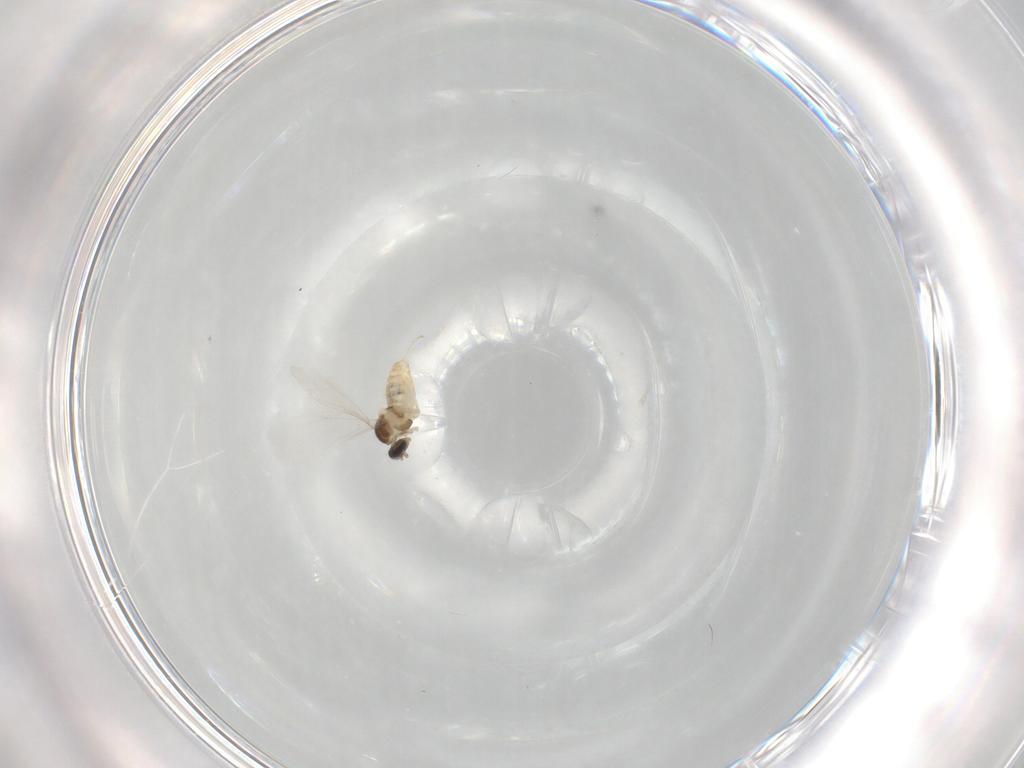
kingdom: Animalia
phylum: Arthropoda
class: Insecta
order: Diptera
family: Cecidomyiidae
